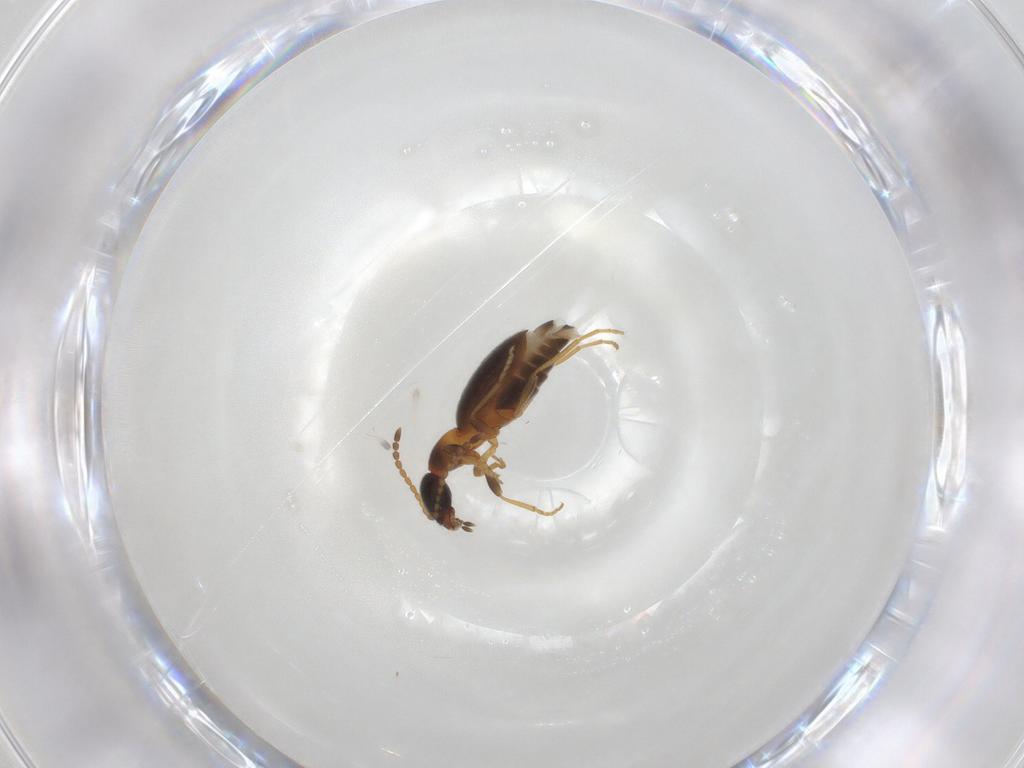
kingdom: Animalia
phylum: Arthropoda
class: Insecta
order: Coleoptera
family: Anthicidae
